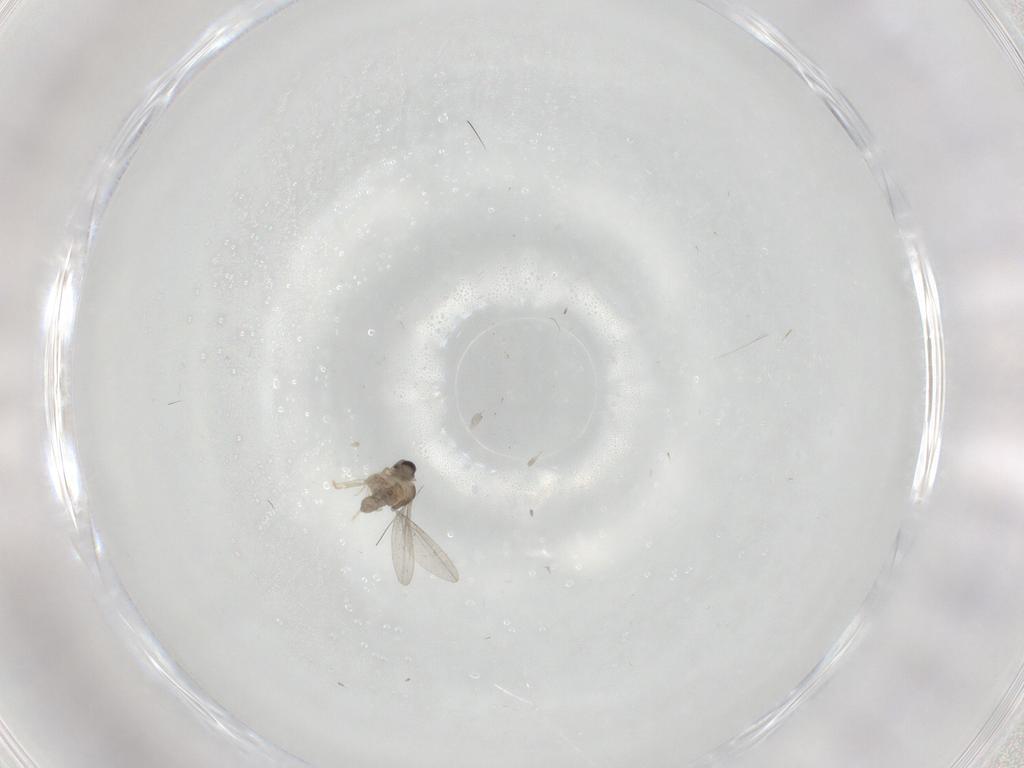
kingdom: Animalia
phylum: Arthropoda
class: Insecta
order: Diptera
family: Cecidomyiidae
